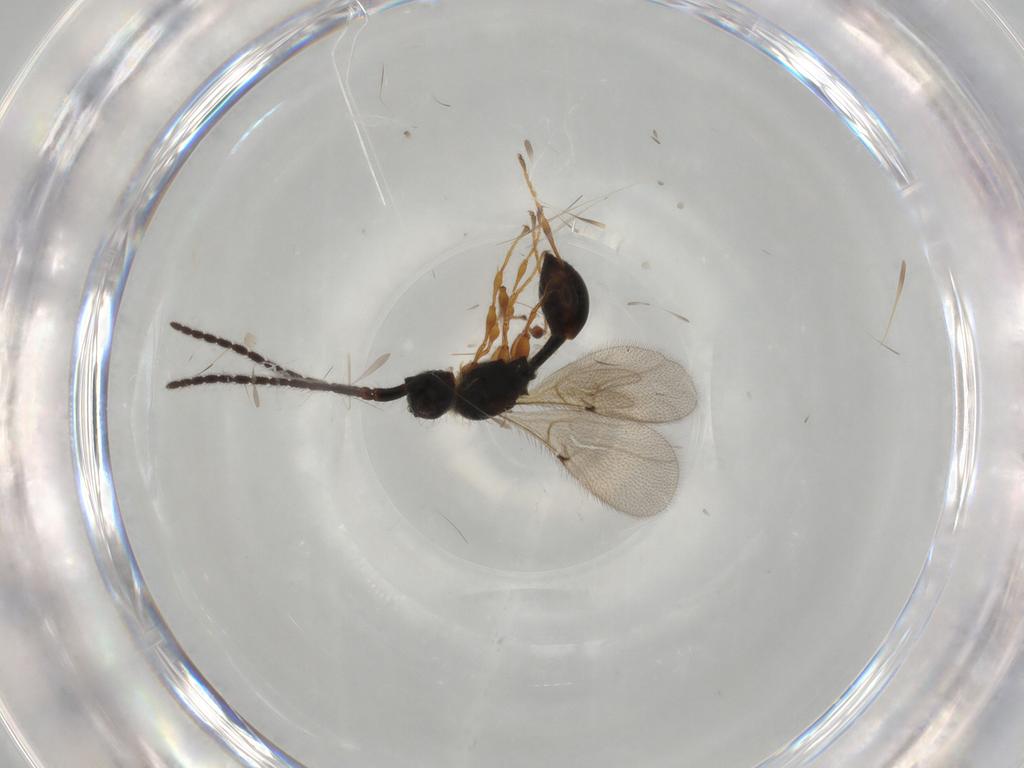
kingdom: Animalia
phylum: Arthropoda
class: Insecta
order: Hymenoptera
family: Diapriidae
